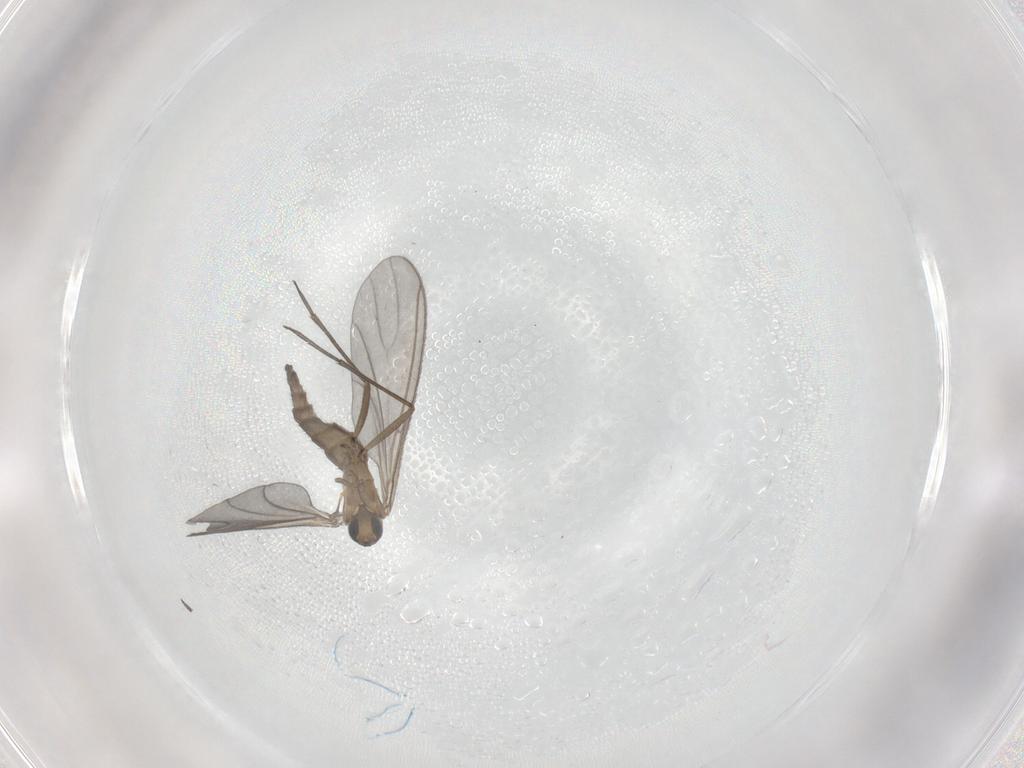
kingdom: Animalia
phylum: Arthropoda
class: Insecta
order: Diptera
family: Sciaridae
